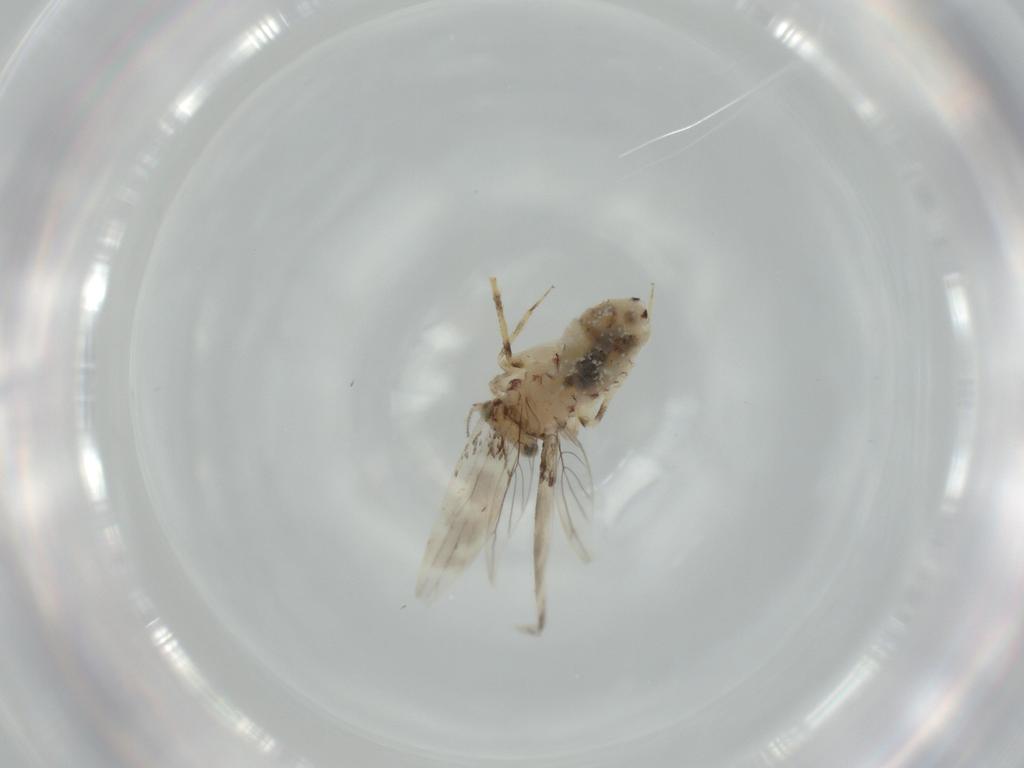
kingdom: Animalia
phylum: Arthropoda
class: Insecta
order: Psocodea
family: Lepidopsocidae
